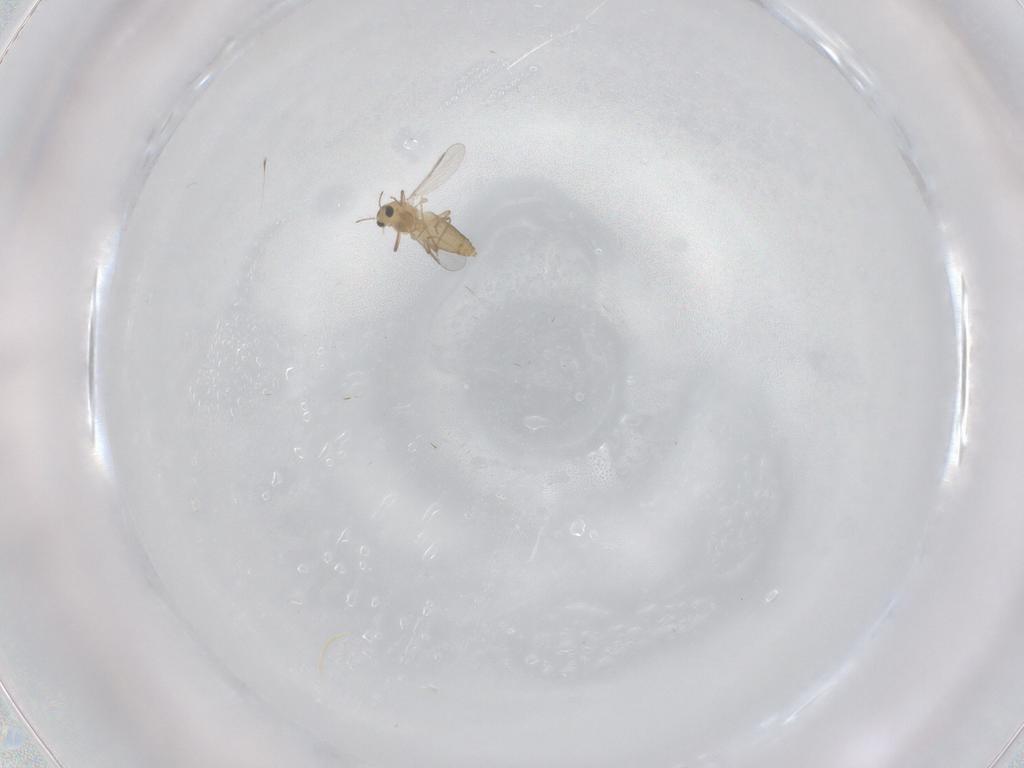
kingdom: Animalia
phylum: Arthropoda
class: Insecta
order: Diptera
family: Chironomidae
